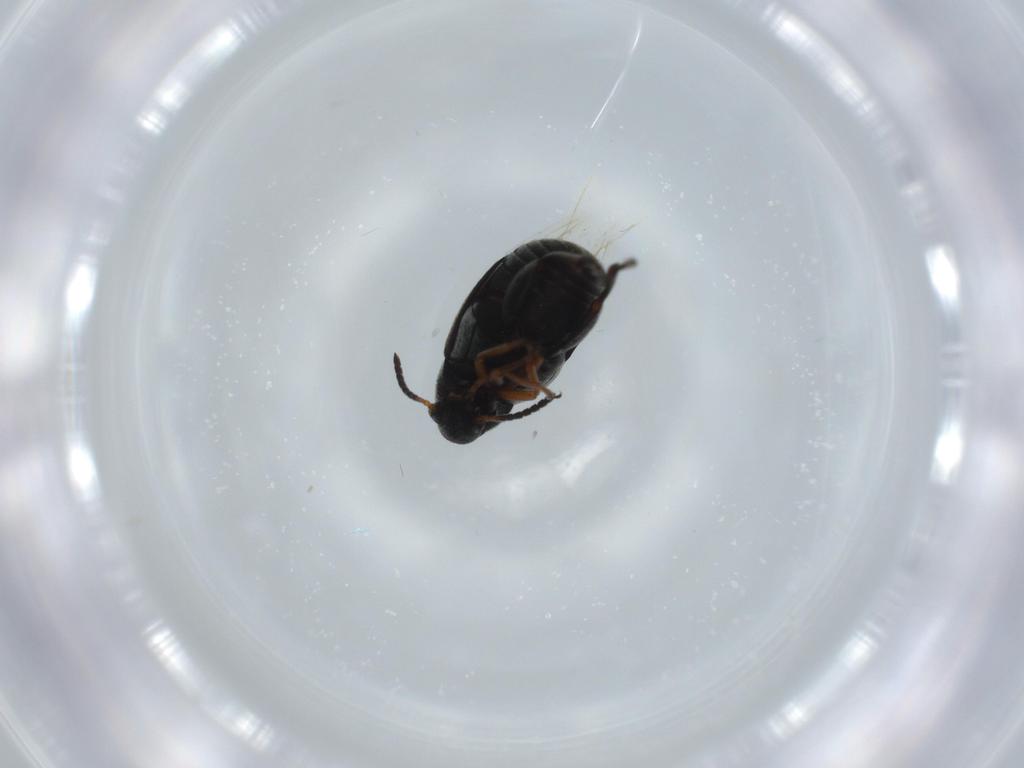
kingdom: Animalia
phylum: Arthropoda
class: Insecta
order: Coleoptera
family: Chrysomelidae
